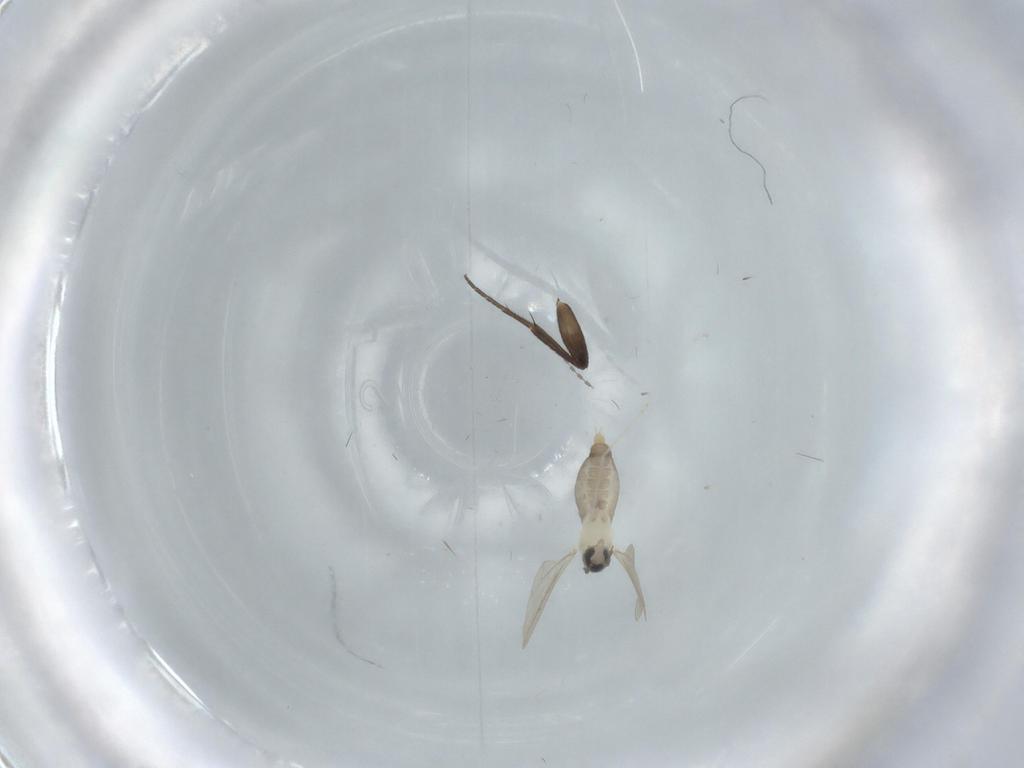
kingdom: Animalia
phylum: Arthropoda
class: Insecta
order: Diptera
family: Cecidomyiidae
